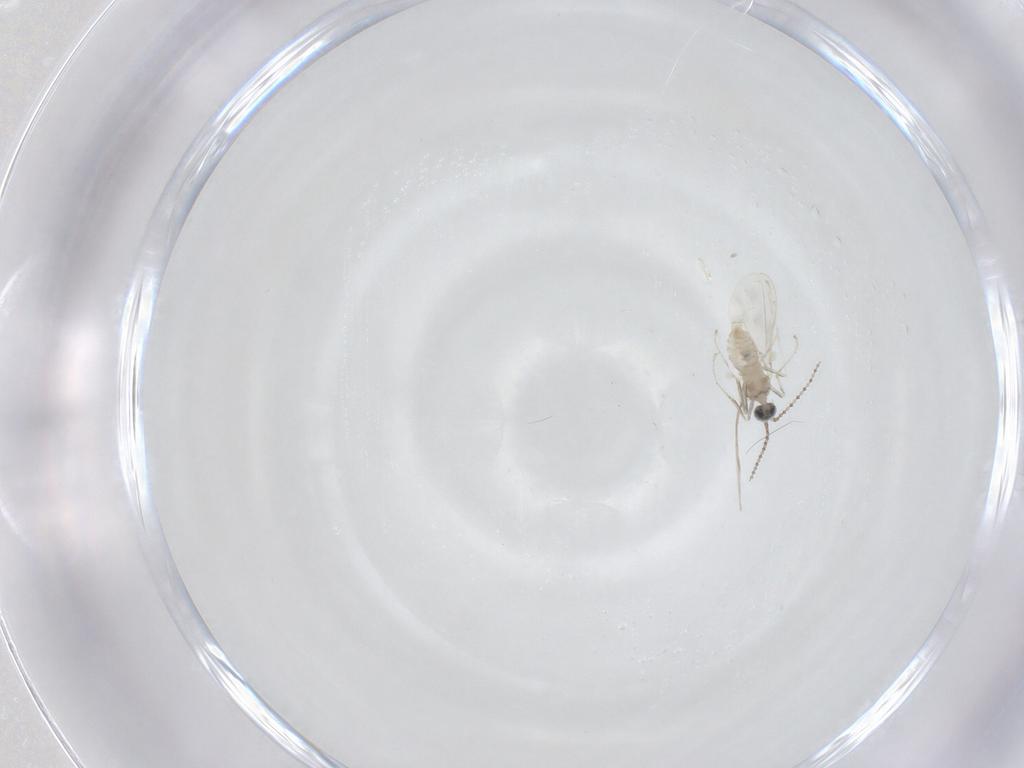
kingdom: Animalia
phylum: Arthropoda
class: Insecta
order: Diptera
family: Cecidomyiidae
